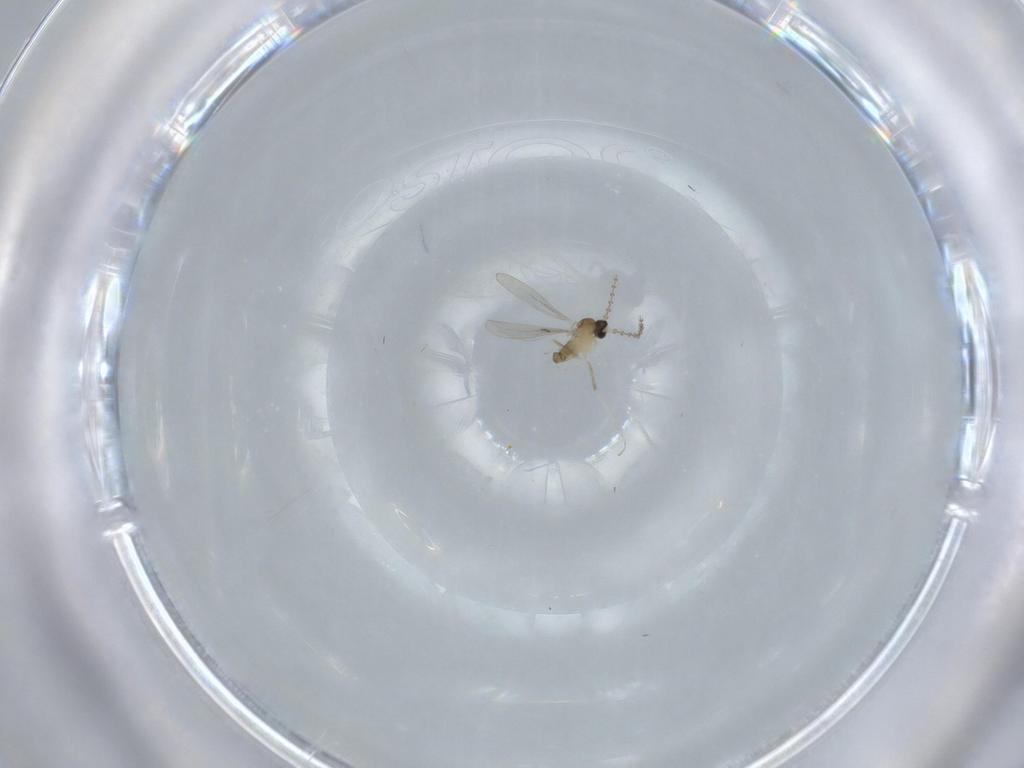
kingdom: Animalia
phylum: Arthropoda
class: Insecta
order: Diptera
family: Cecidomyiidae
